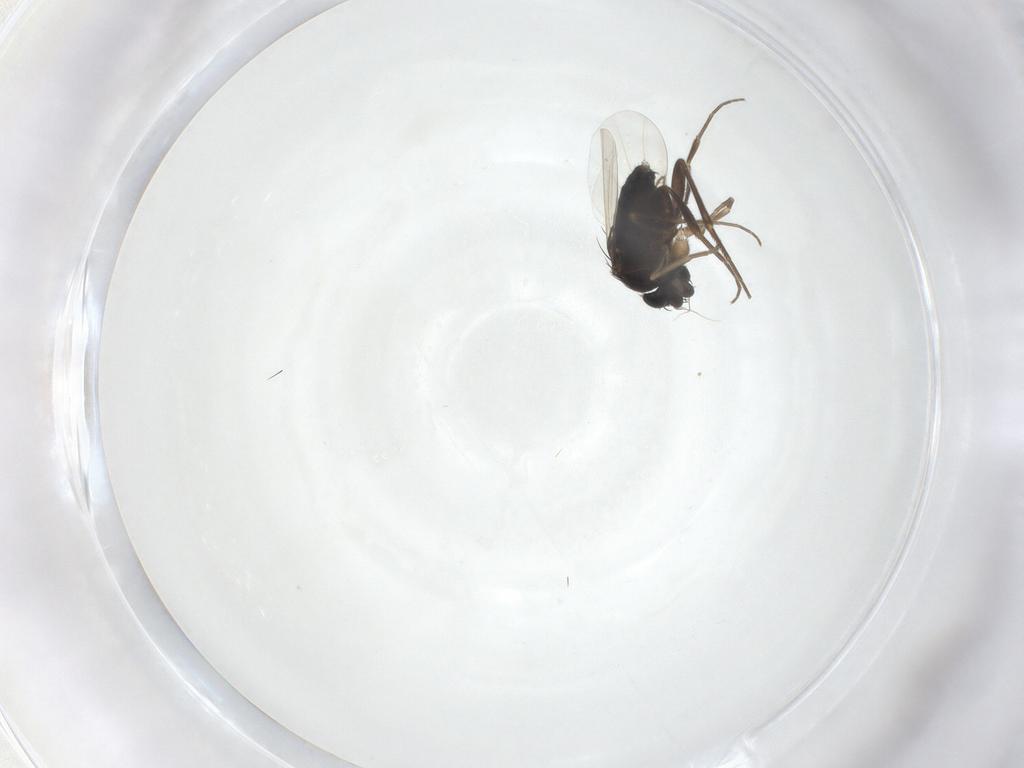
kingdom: Animalia
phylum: Arthropoda
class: Insecta
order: Diptera
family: Phoridae
